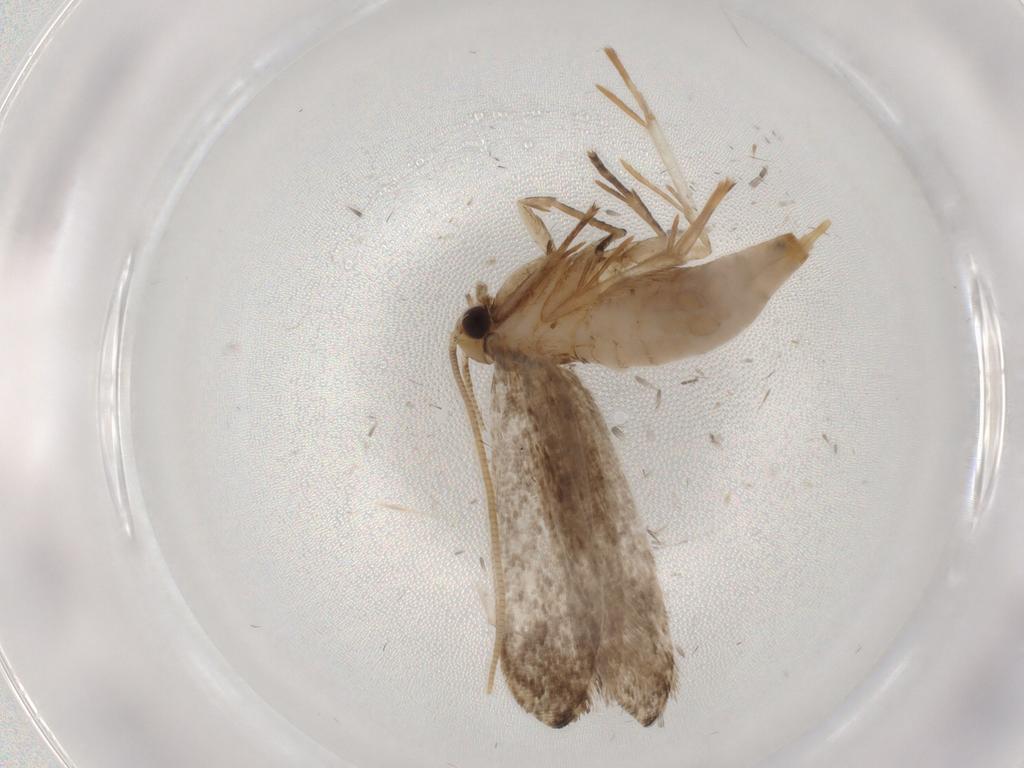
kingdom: Animalia
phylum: Arthropoda
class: Insecta
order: Lepidoptera
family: Tineidae
